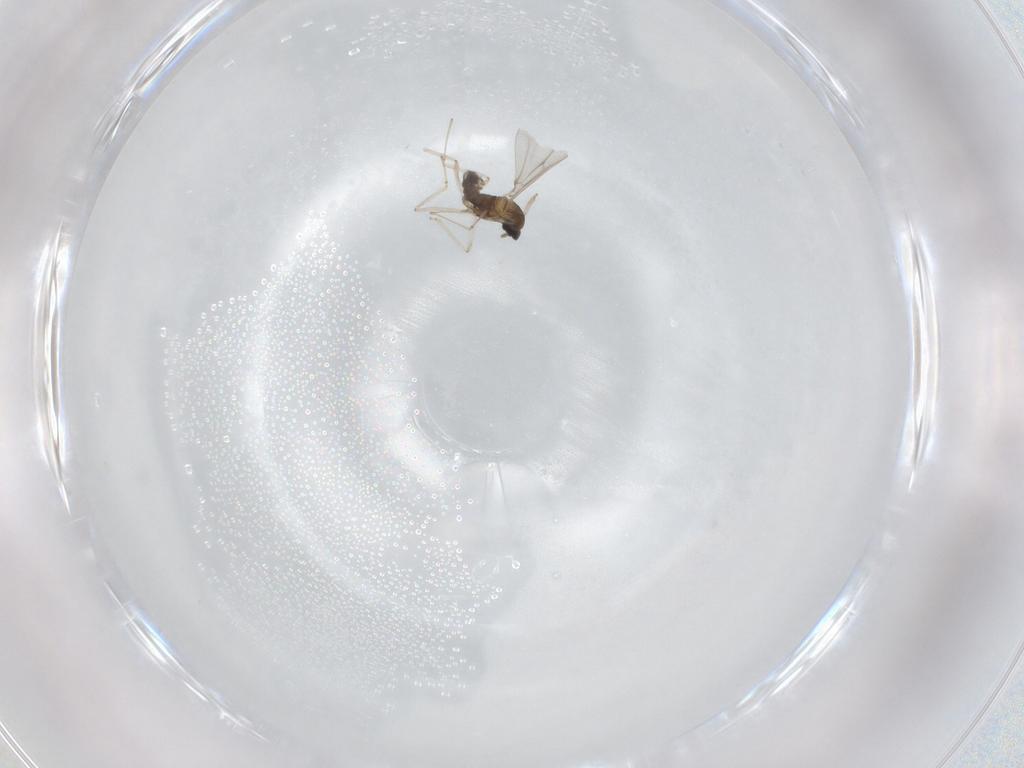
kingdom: Animalia
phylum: Arthropoda
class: Insecta
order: Diptera
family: Cecidomyiidae
